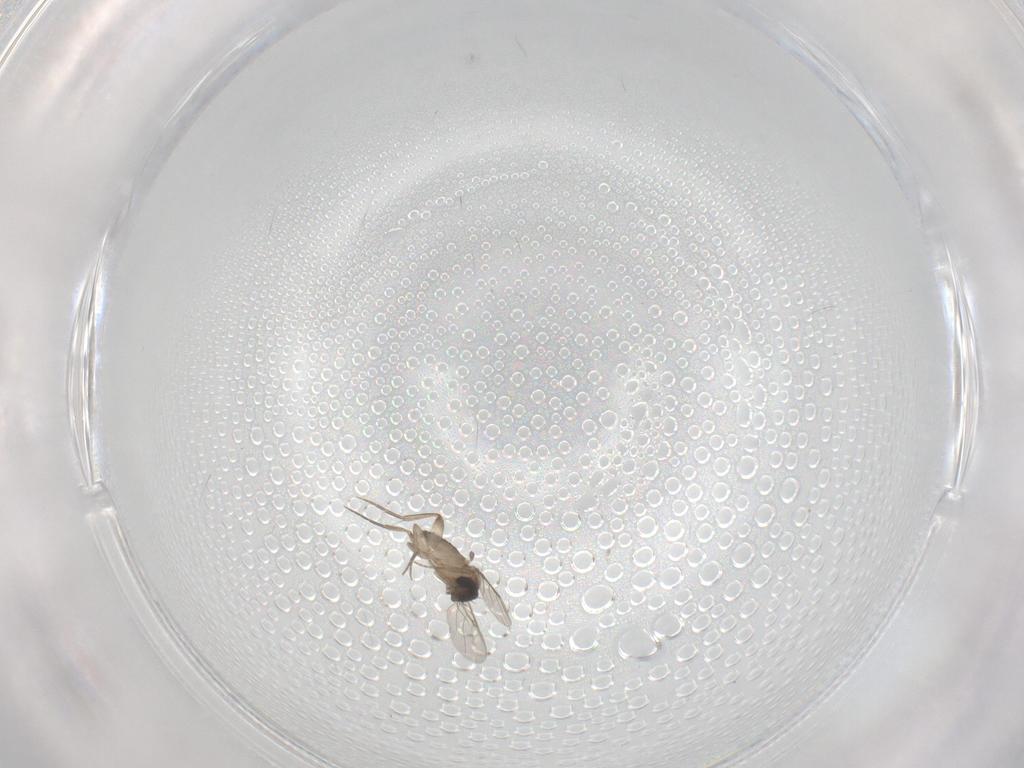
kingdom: Animalia
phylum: Arthropoda
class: Insecta
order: Diptera
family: Phoridae
